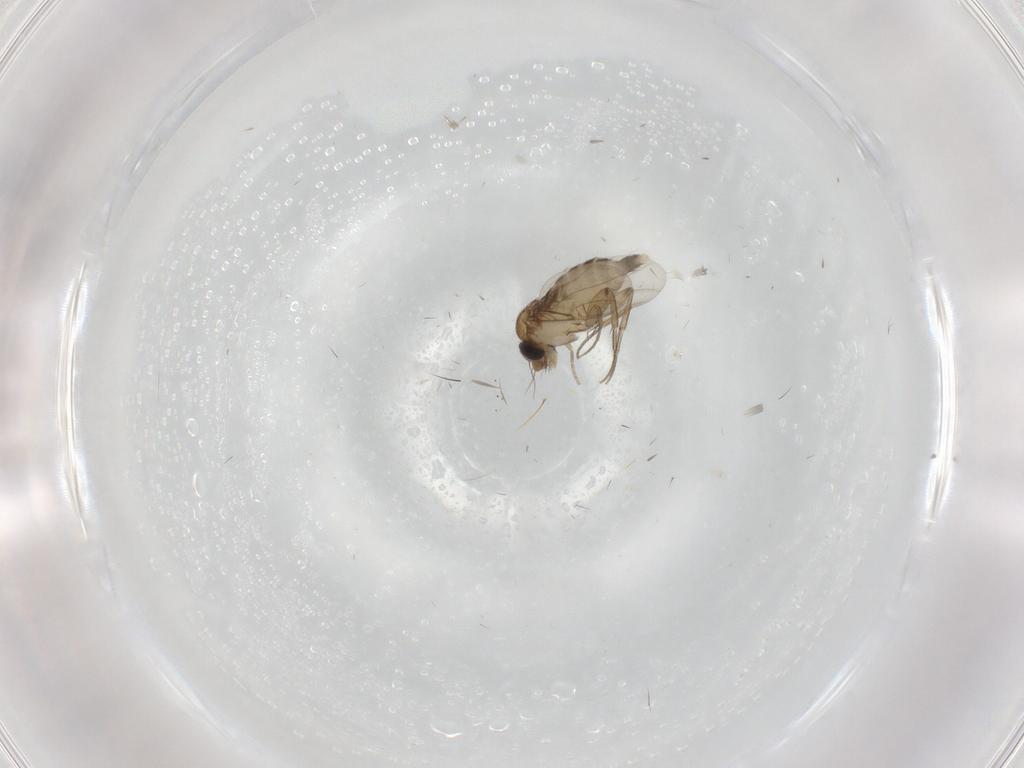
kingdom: Animalia
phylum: Arthropoda
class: Insecta
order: Diptera
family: Phoridae
